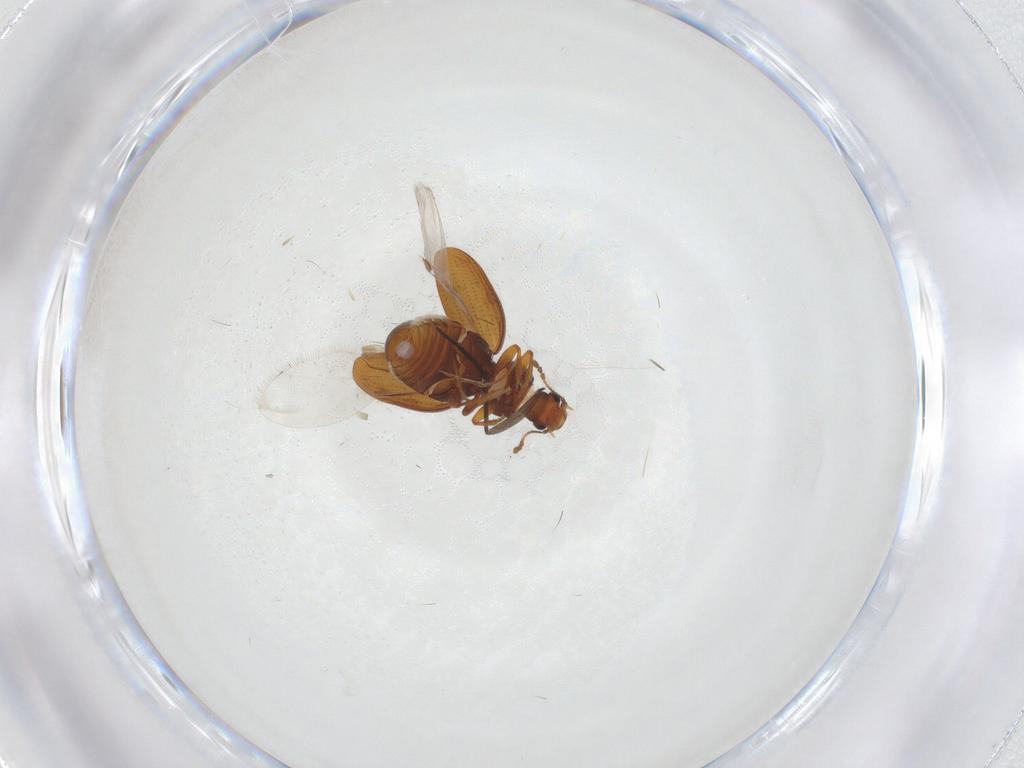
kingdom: Animalia
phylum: Arthropoda
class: Insecta
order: Coleoptera
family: Latridiidae
